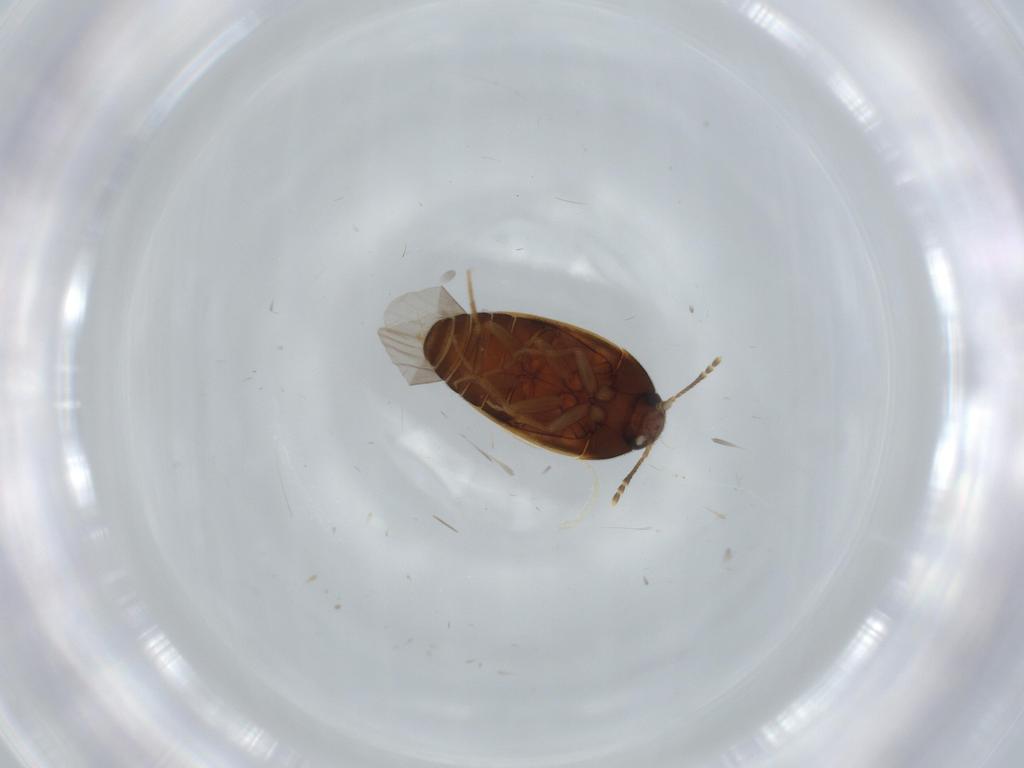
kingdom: Animalia
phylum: Arthropoda
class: Insecta
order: Coleoptera
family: Mycetophagidae
